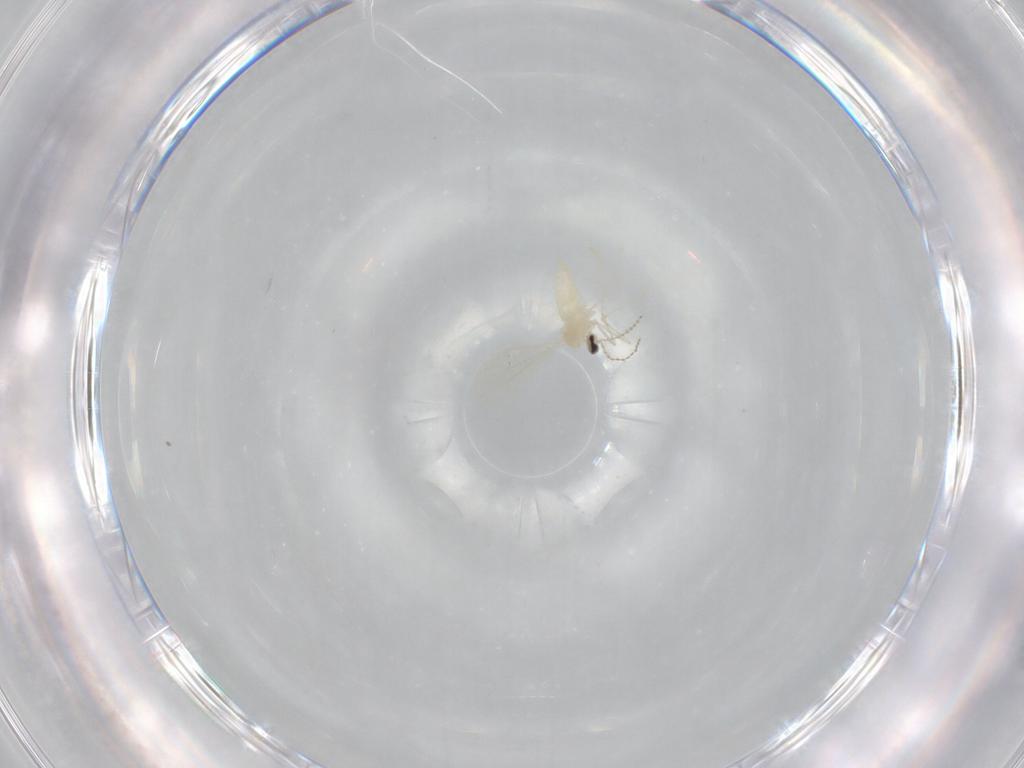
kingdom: Animalia
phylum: Arthropoda
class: Insecta
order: Diptera
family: Cecidomyiidae
